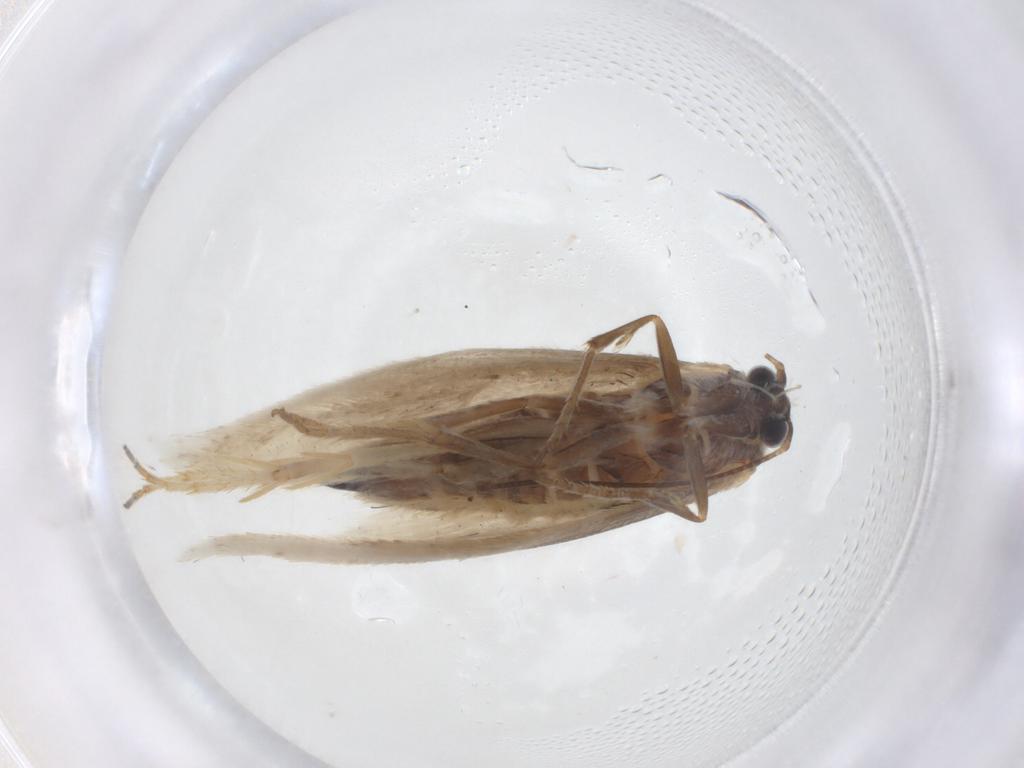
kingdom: Animalia
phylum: Arthropoda
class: Insecta
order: Lepidoptera
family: Tridentaformidae
